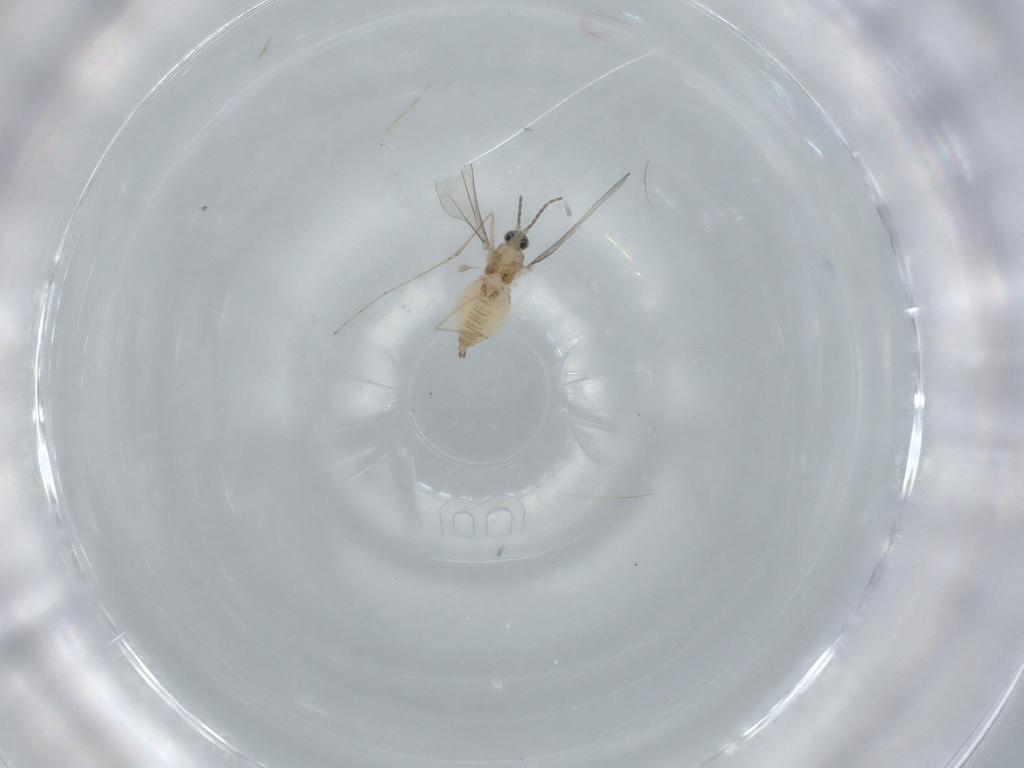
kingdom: Animalia
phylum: Arthropoda
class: Insecta
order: Diptera
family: Cecidomyiidae
